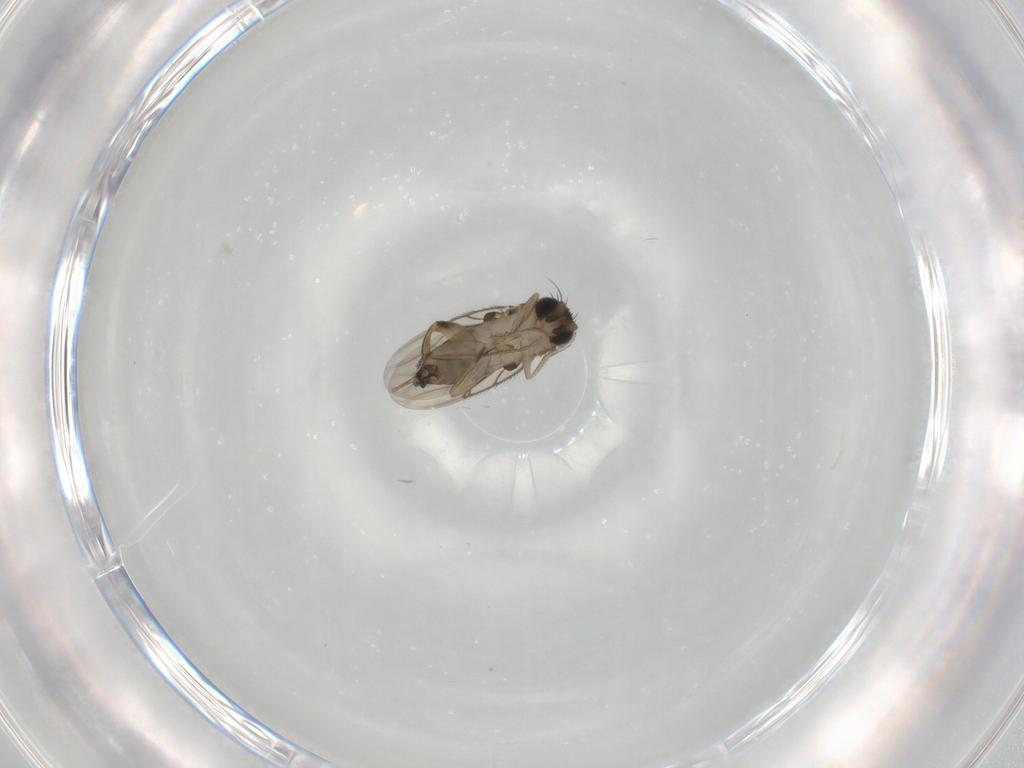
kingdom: Animalia
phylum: Arthropoda
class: Insecta
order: Diptera
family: Phoridae
